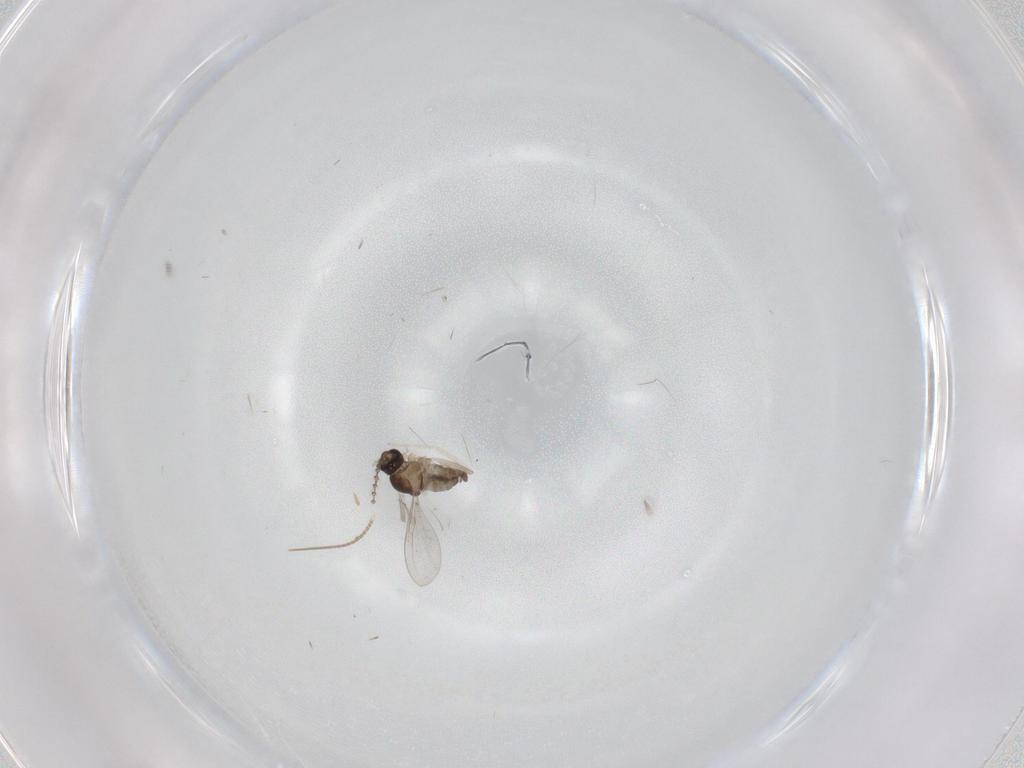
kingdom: Animalia
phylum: Arthropoda
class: Insecta
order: Diptera
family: Cecidomyiidae
